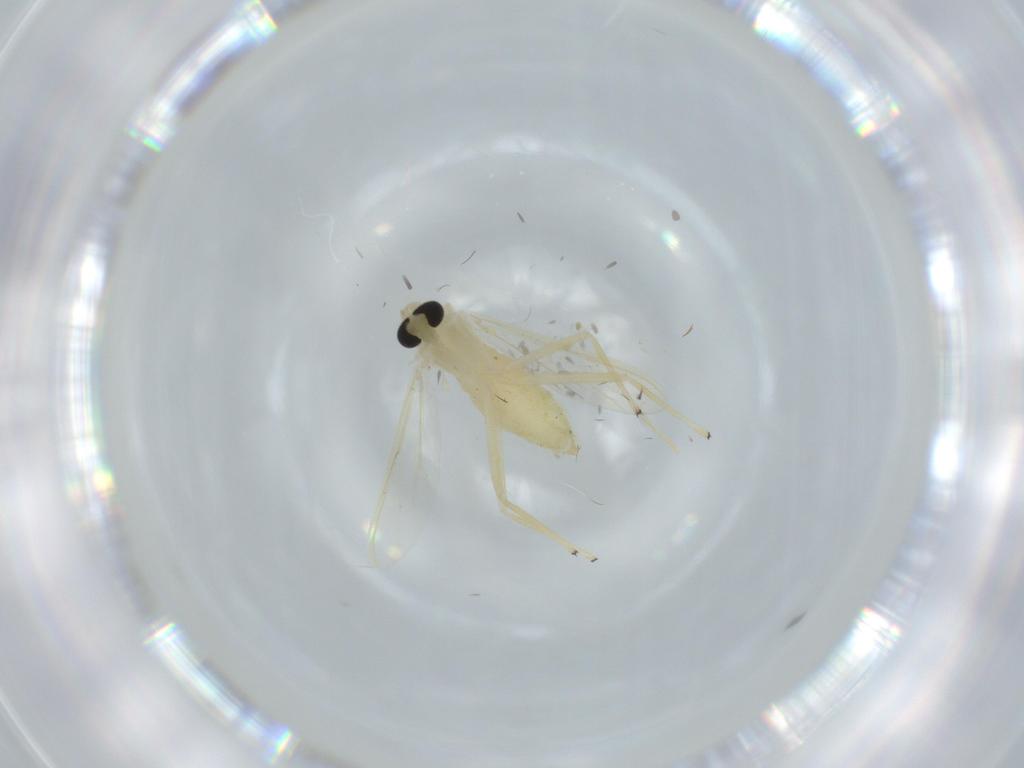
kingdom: Animalia
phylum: Arthropoda
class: Insecta
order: Diptera
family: Chironomidae
